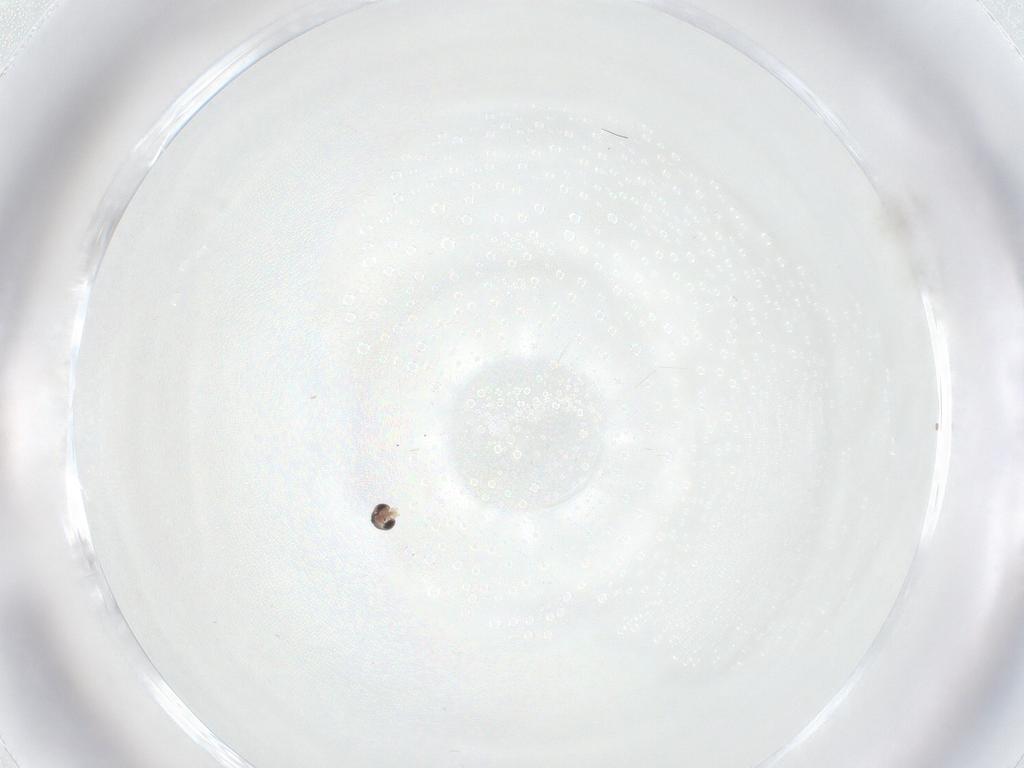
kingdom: Animalia
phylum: Arthropoda
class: Insecta
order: Diptera
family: Cecidomyiidae
